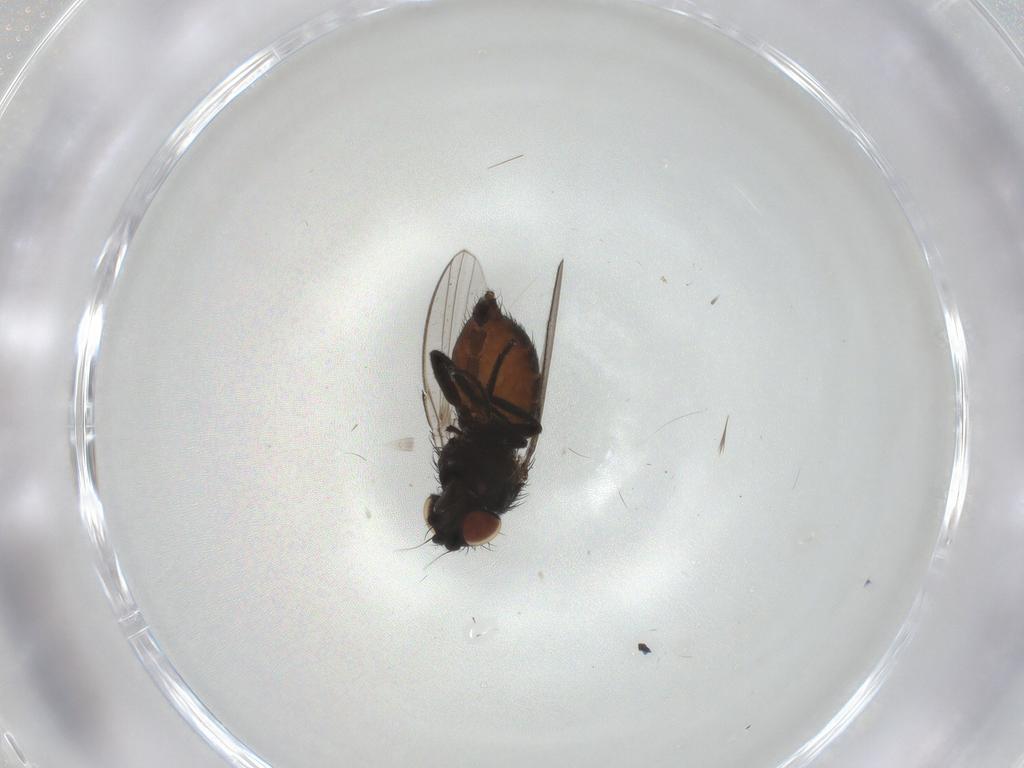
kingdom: Animalia
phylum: Arthropoda
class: Insecta
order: Diptera
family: Milichiidae
